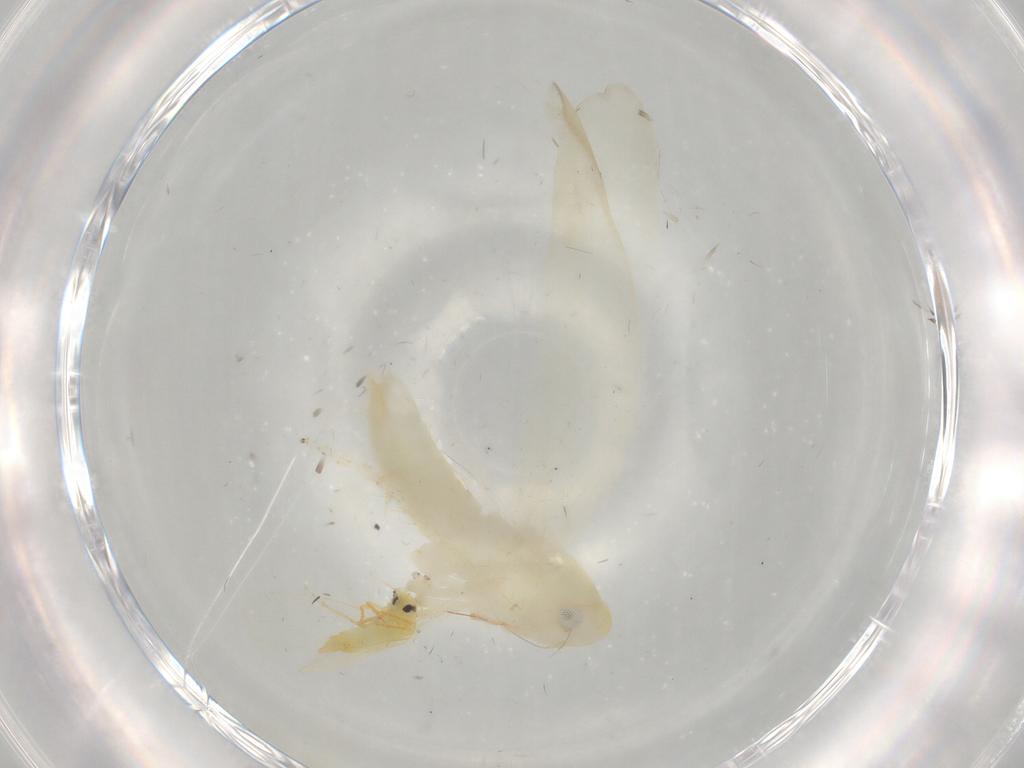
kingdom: Animalia
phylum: Arthropoda
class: Insecta
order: Hemiptera
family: Cicadellidae
